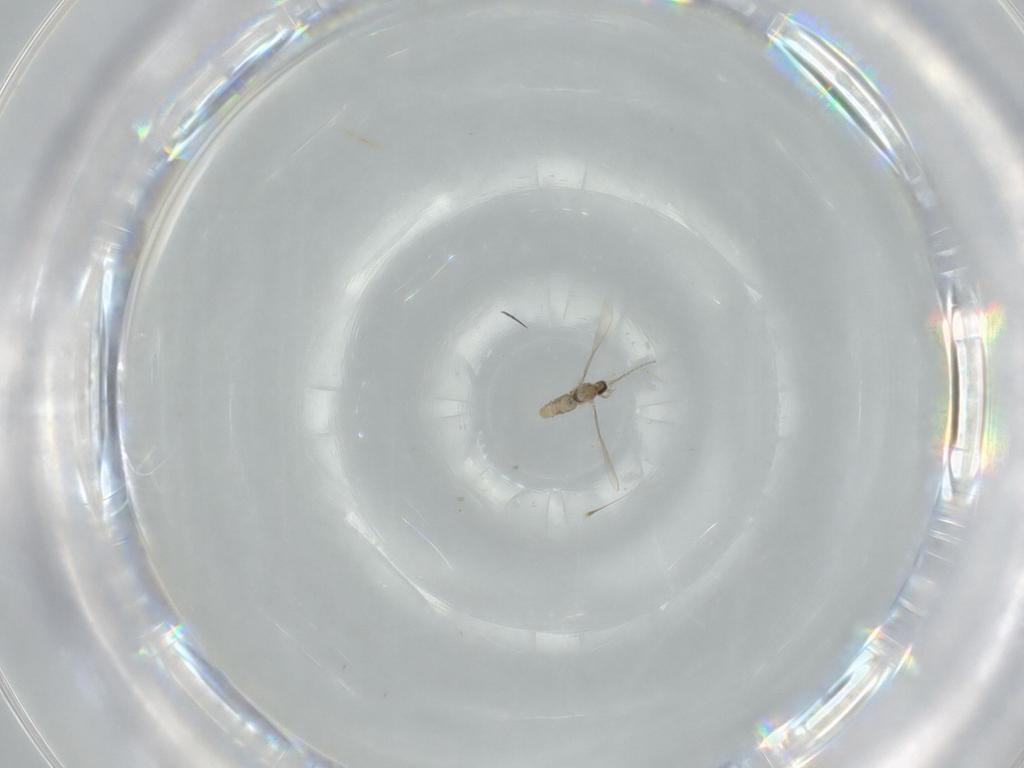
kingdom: Animalia
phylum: Arthropoda
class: Insecta
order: Diptera
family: Cecidomyiidae
